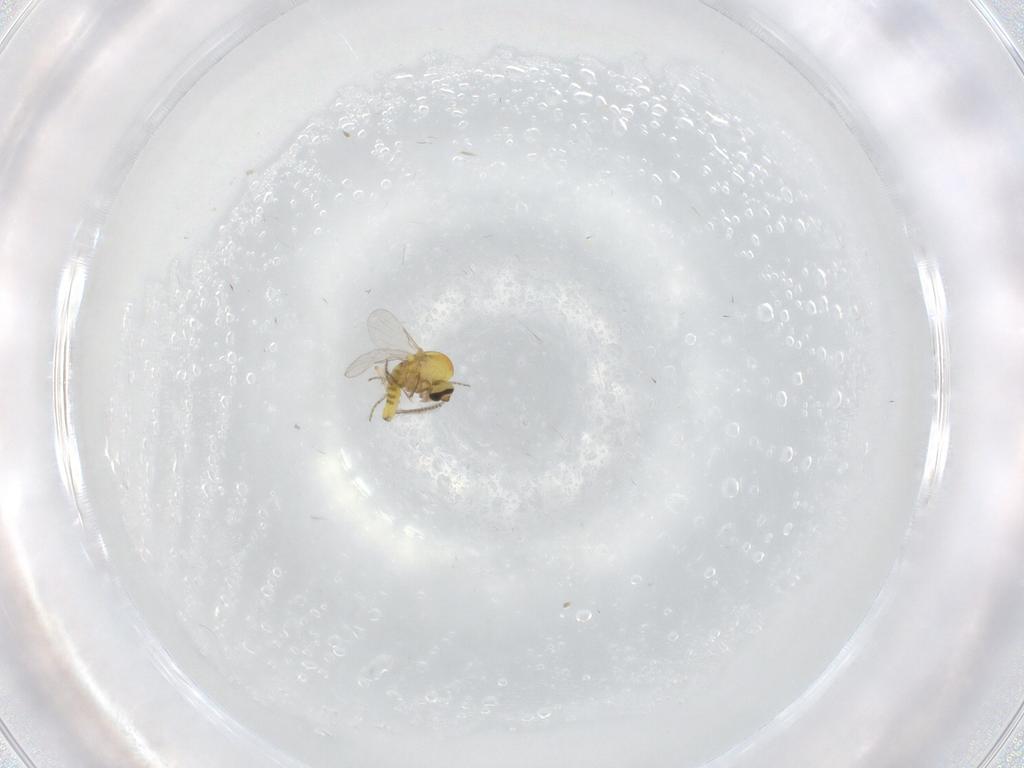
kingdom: Animalia
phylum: Arthropoda
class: Insecta
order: Diptera
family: Ceratopogonidae
